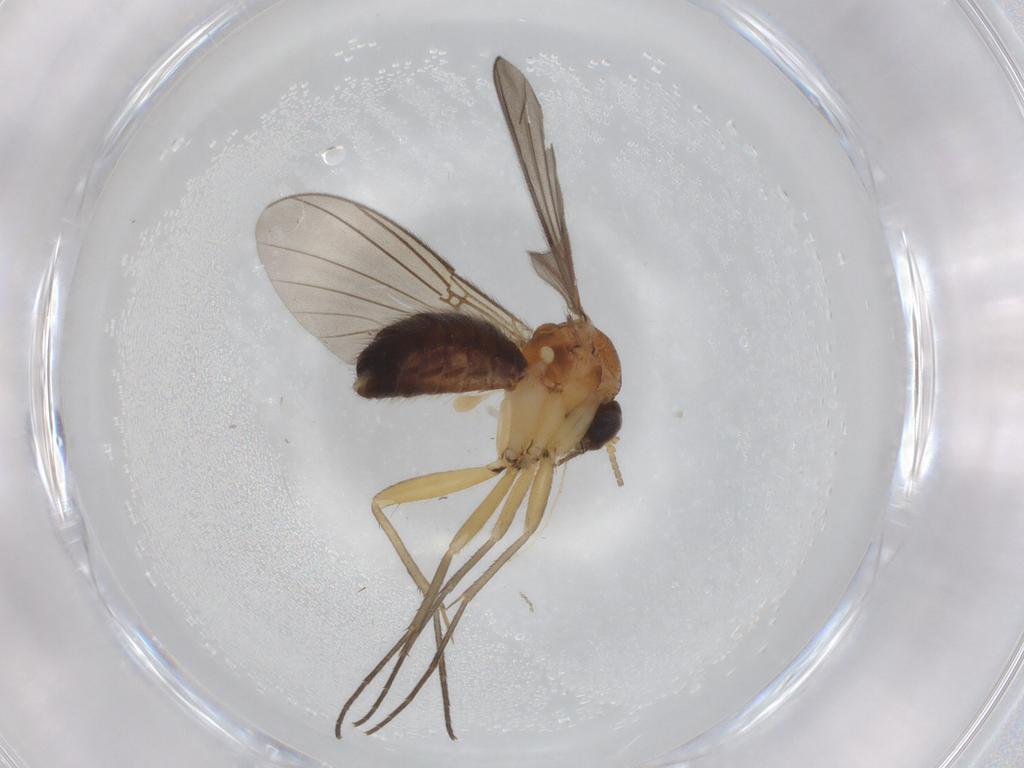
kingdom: Animalia
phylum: Arthropoda
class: Insecta
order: Diptera
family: Mycetophilidae
